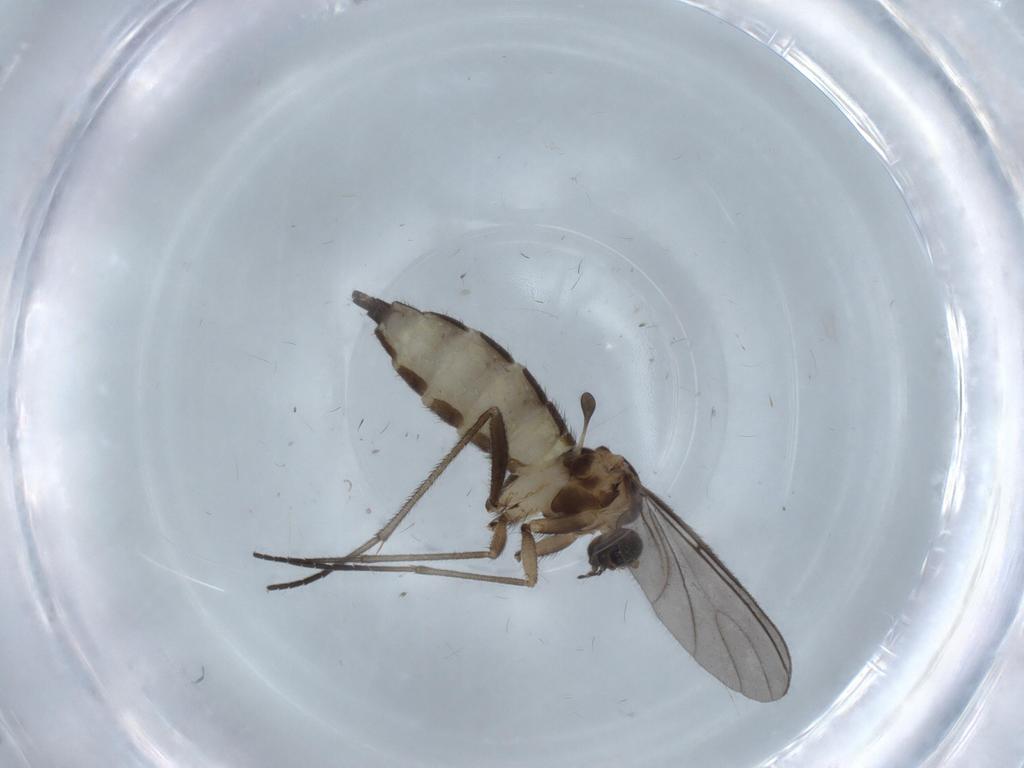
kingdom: Animalia
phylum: Arthropoda
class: Insecta
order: Diptera
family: Sciaridae
